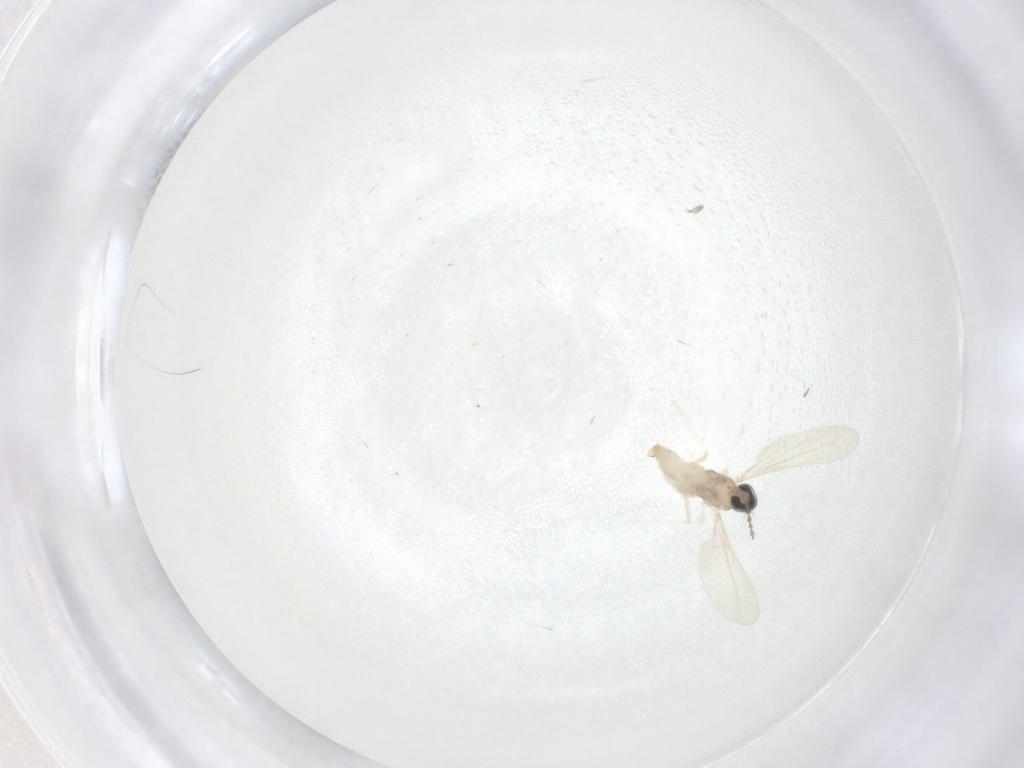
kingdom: Animalia
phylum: Arthropoda
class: Insecta
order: Diptera
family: Cecidomyiidae
